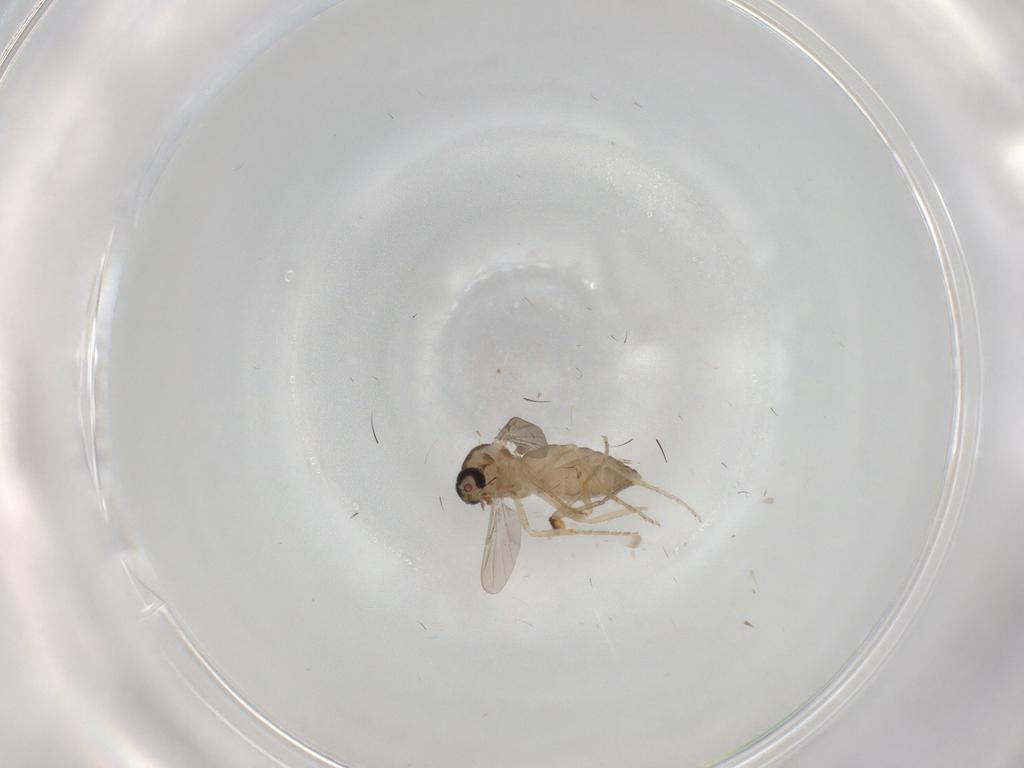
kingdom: Animalia
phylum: Arthropoda
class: Insecta
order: Diptera
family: Ceratopogonidae
